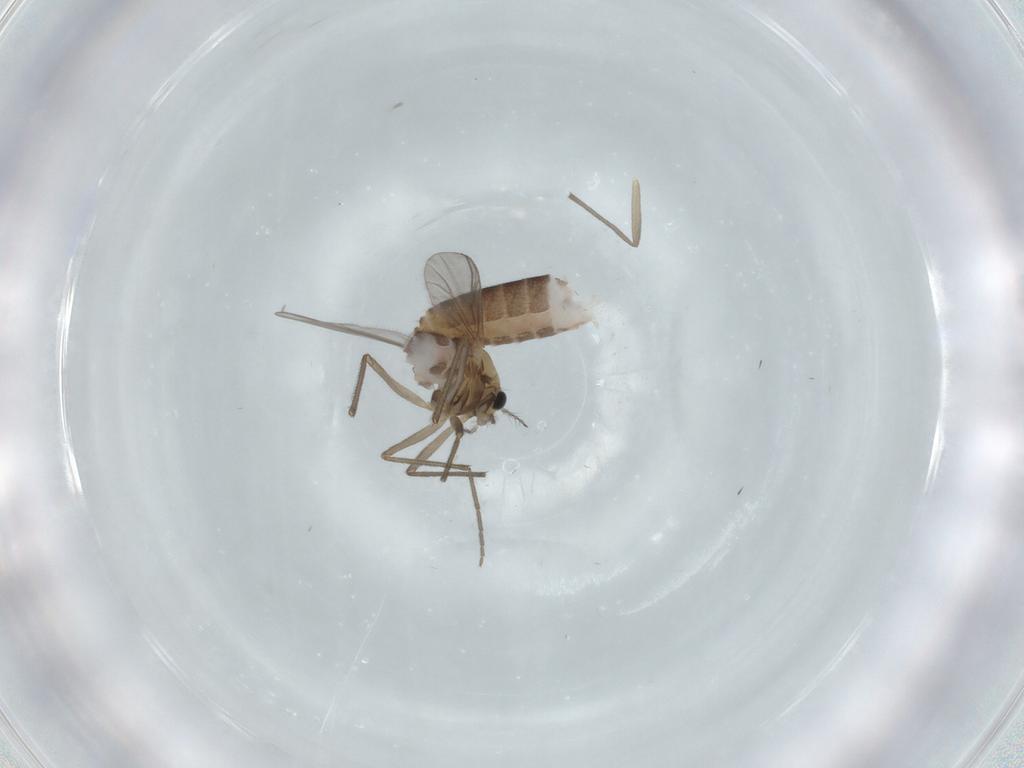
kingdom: Animalia
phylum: Arthropoda
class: Insecta
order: Diptera
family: Chironomidae
